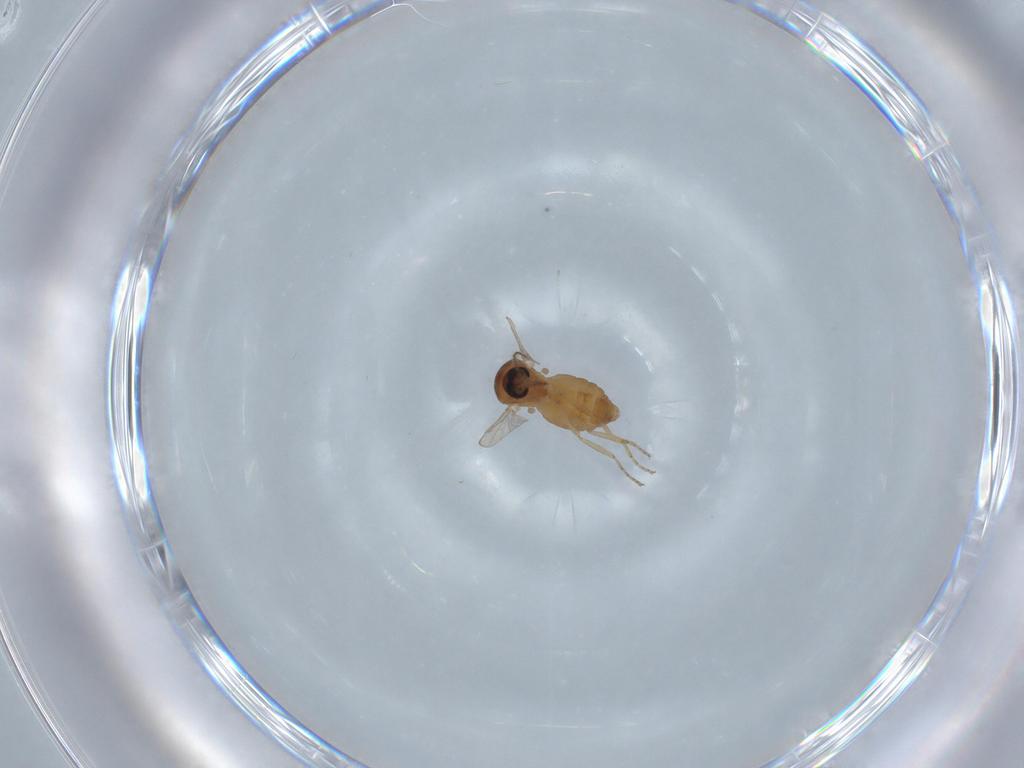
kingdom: Animalia
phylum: Arthropoda
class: Insecta
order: Diptera
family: Ceratopogonidae
